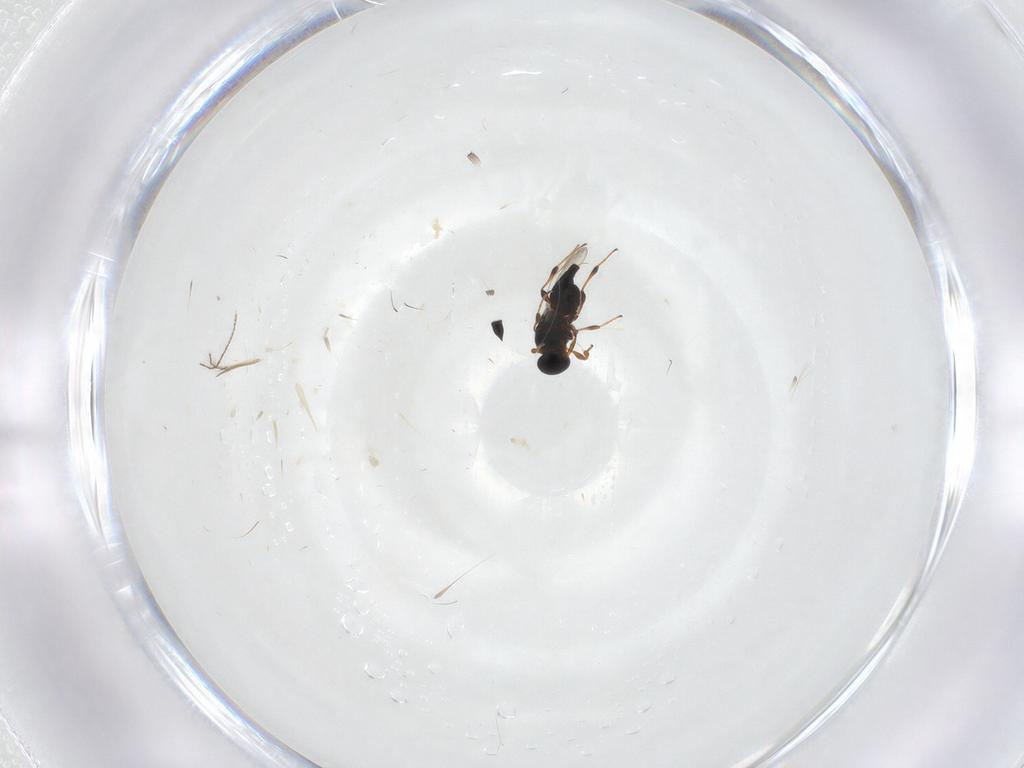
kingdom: Animalia
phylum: Arthropoda
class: Insecta
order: Hymenoptera
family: Platygastridae
